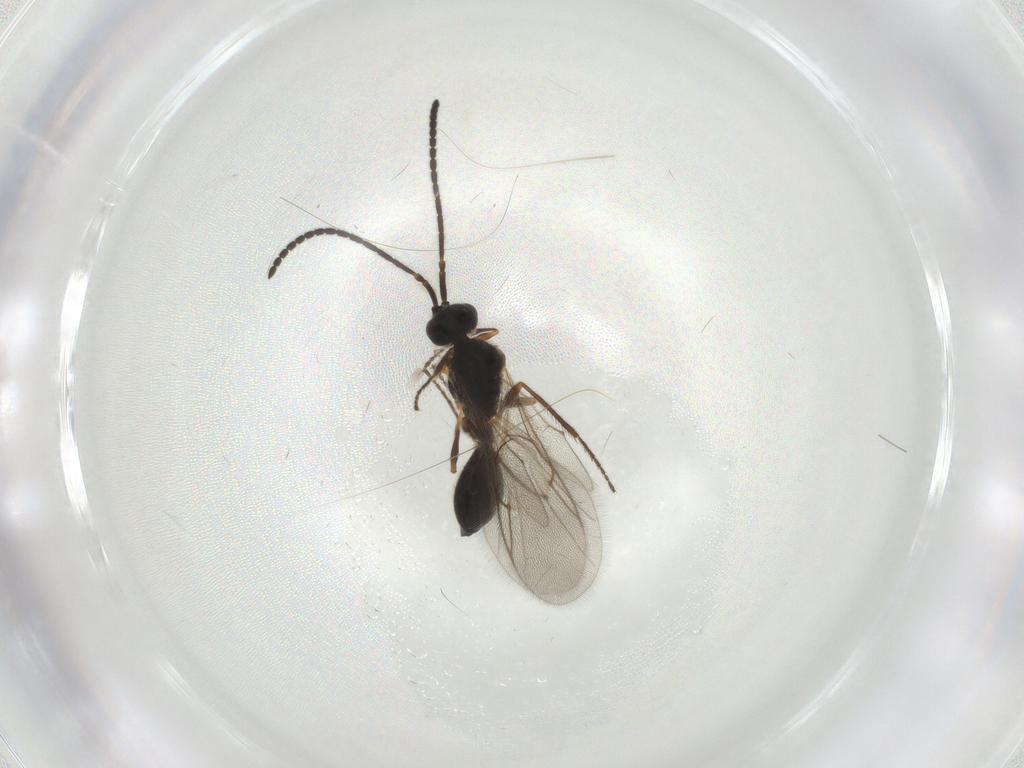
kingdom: Animalia
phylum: Arthropoda
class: Insecta
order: Hymenoptera
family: Diapriidae
